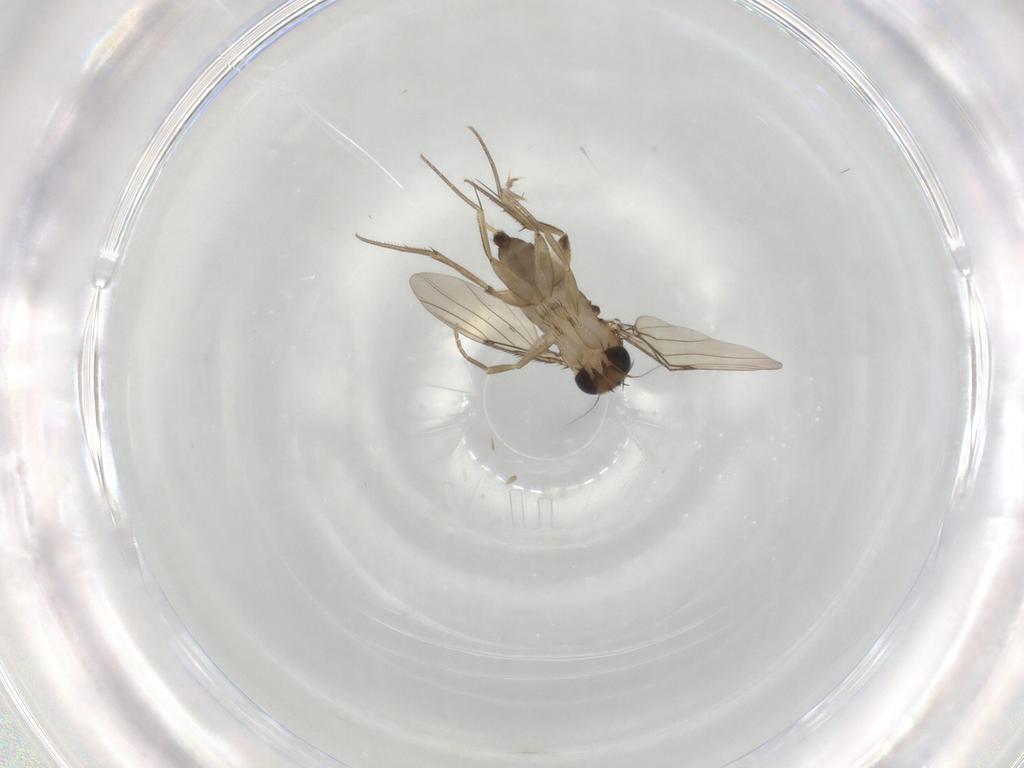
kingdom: Animalia
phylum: Arthropoda
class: Insecta
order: Diptera
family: Phoridae
